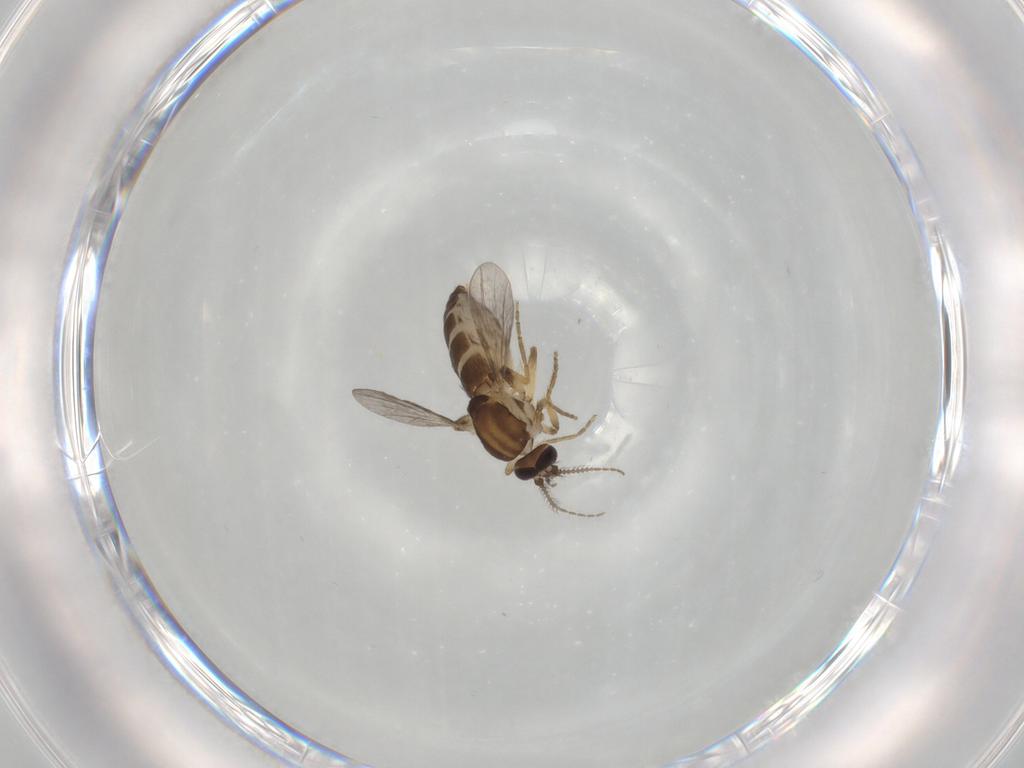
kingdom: Animalia
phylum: Arthropoda
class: Insecta
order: Diptera
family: Ceratopogonidae
